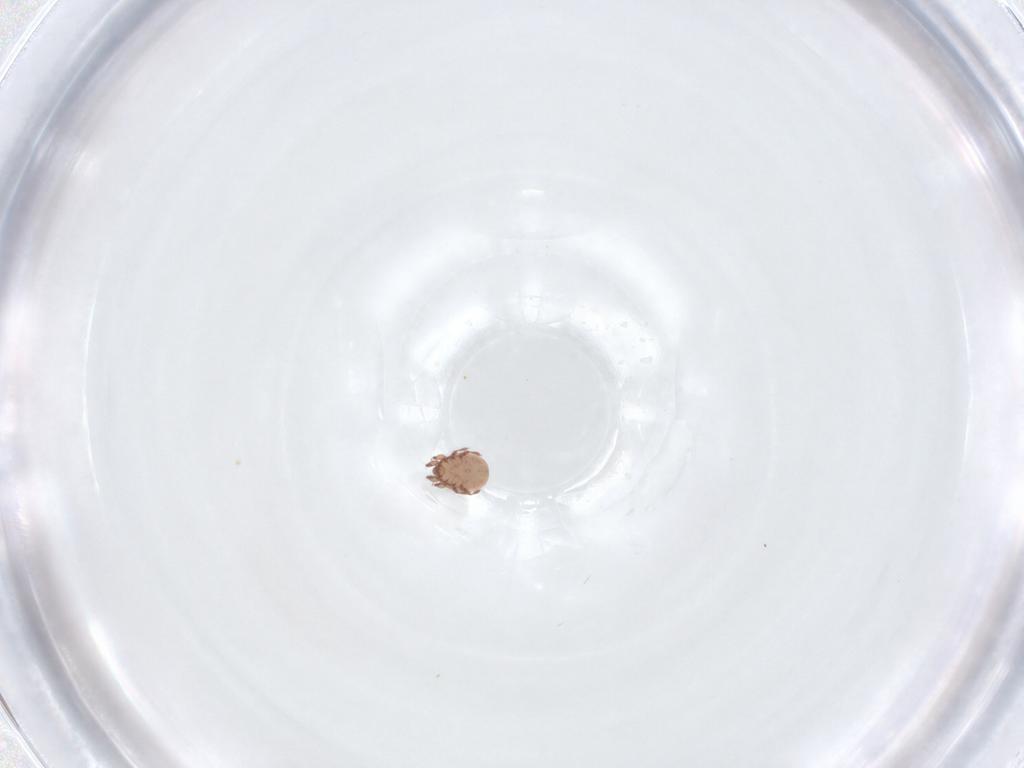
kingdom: Animalia
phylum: Arthropoda
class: Arachnida
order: Sarcoptiformes
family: Eremaeidae
